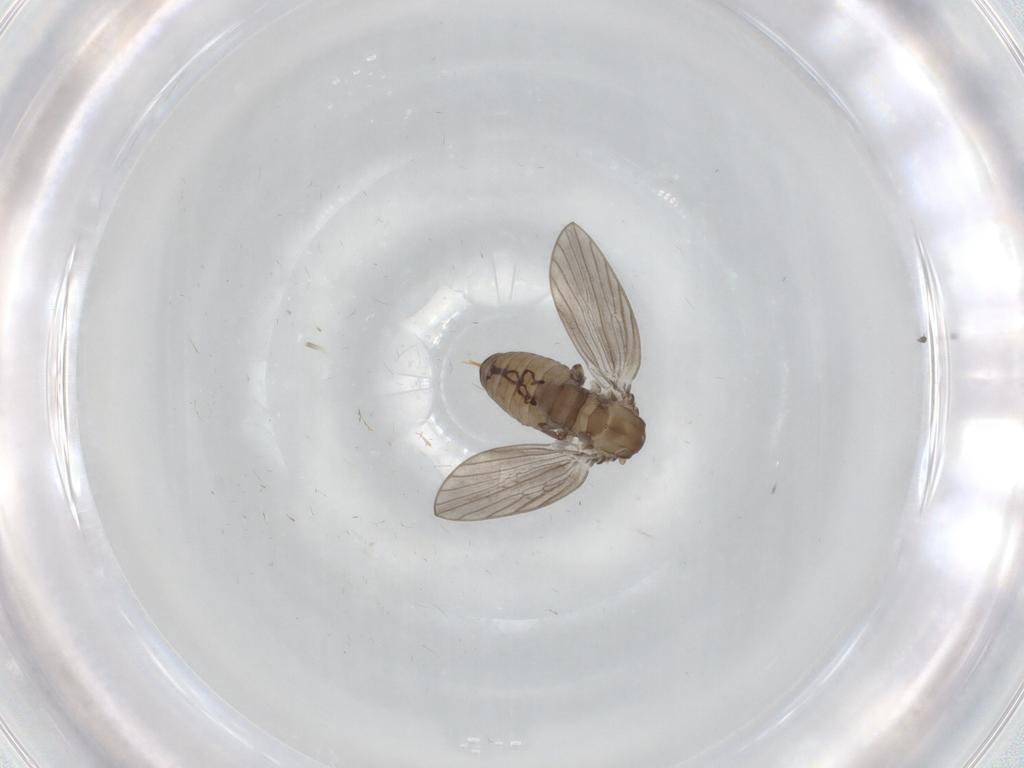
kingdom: Animalia
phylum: Arthropoda
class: Insecta
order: Diptera
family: Psychodidae
